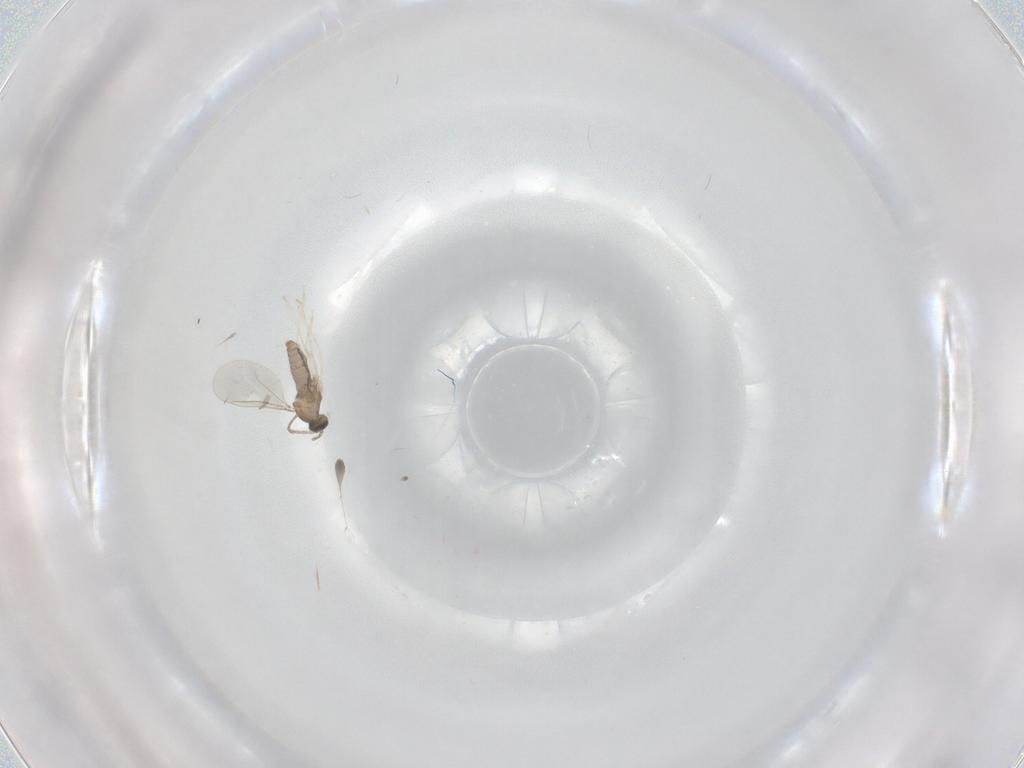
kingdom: Animalia
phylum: Arthropoda
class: Insecta
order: Diptera
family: Cecidomyiidae
